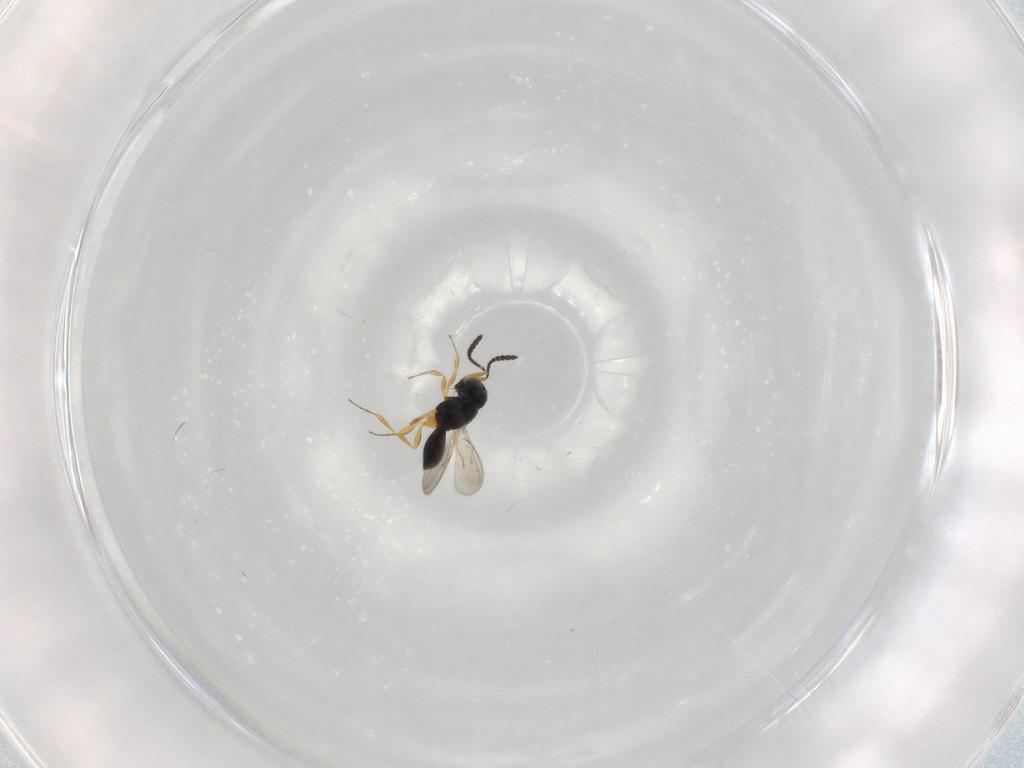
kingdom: Animalia
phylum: Arthropoda
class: Insecta
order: Hymenoptera
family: Scelionidae
